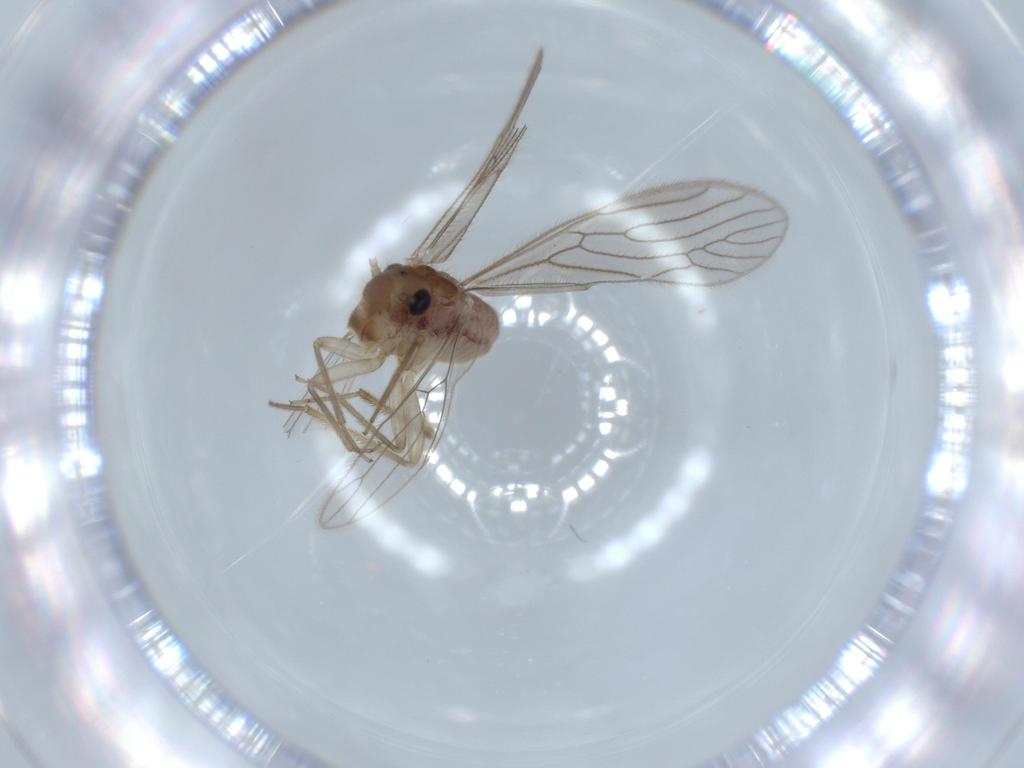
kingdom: Animalia
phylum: Arthropoda
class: Insecta
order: Psocodea
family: Cladiopsocidae
